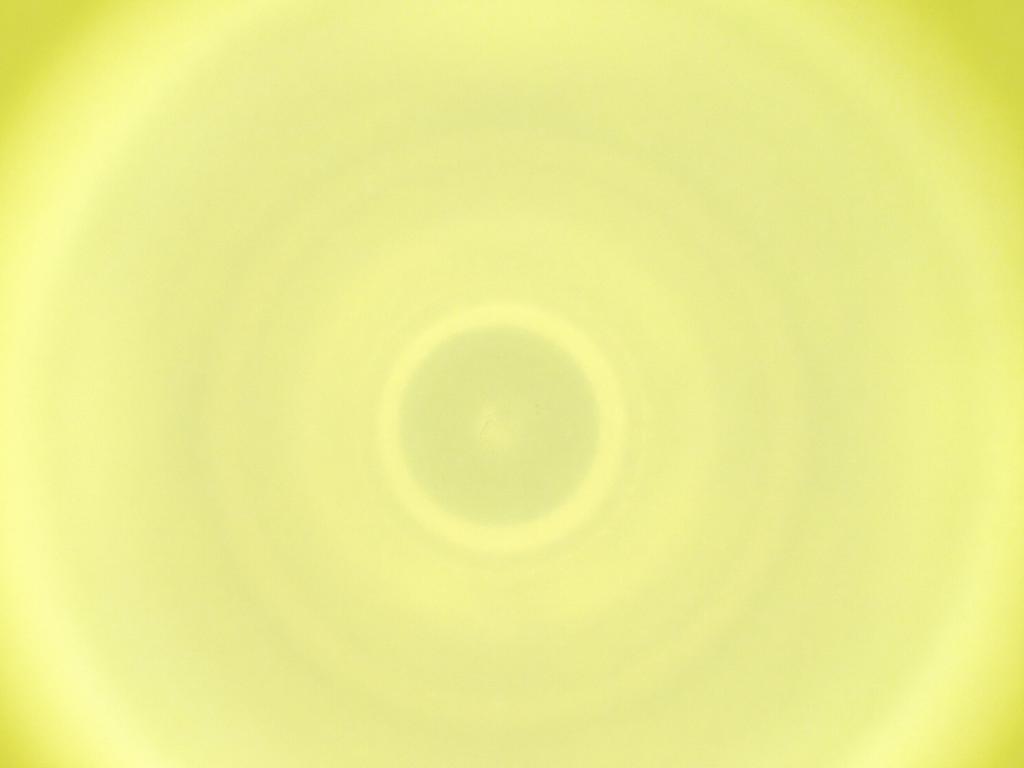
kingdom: Animalia
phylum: Arthropoda
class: Insecta
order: Diptera
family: Cecidomyiidae
